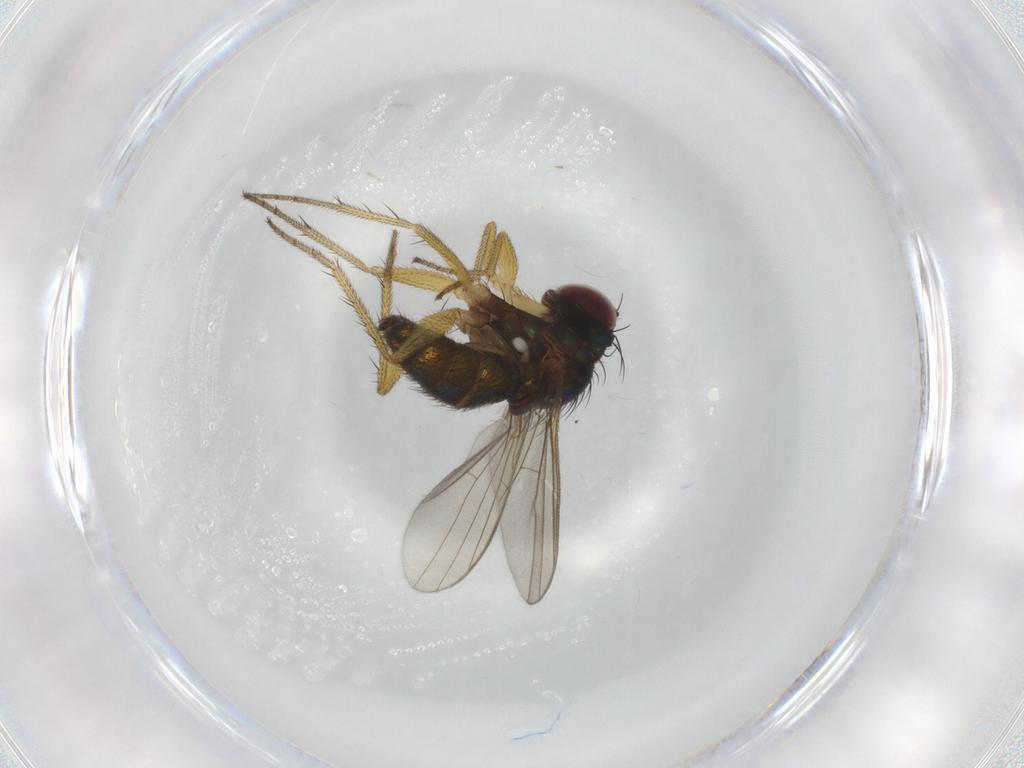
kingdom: Animalia
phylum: Arthropoda
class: Insecta
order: Diptera
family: Dolichopodidae
